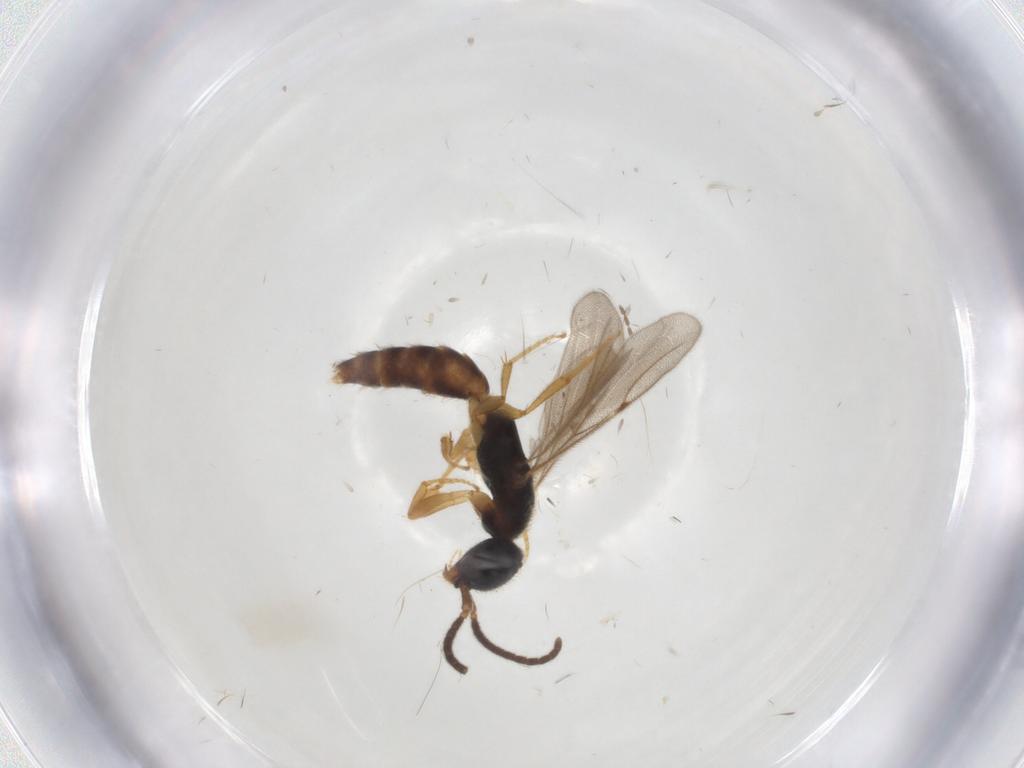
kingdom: Animalia
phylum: Arthropoda
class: Insecta
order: Hymenoptera
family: Bethylidae
